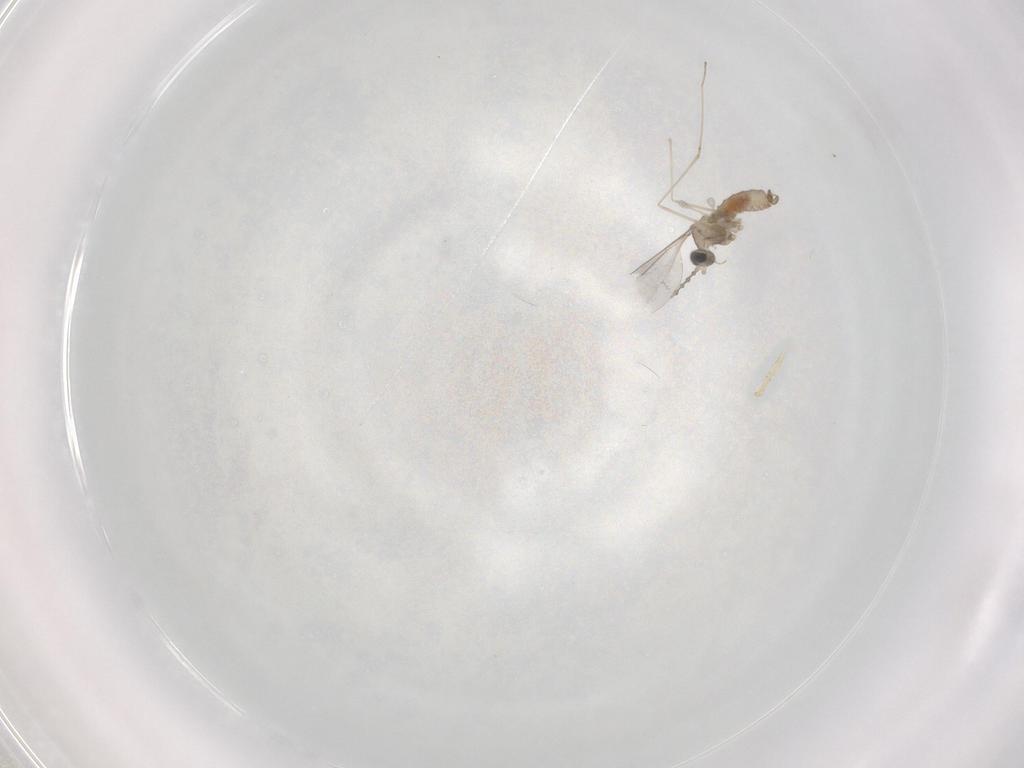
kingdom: Animalia
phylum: Arthropoda
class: Insecta
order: Diptera
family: Cecidomyiidae
